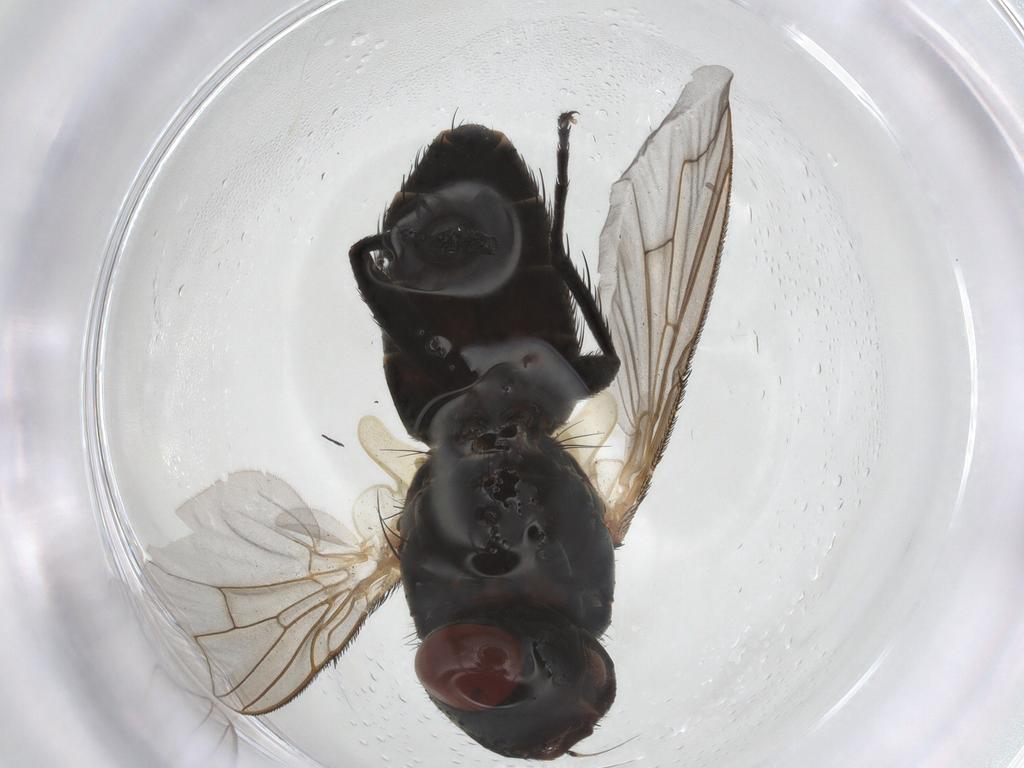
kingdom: Animalia
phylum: Arthropoda
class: Insecta
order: Diptera
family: Sarcophagidae
